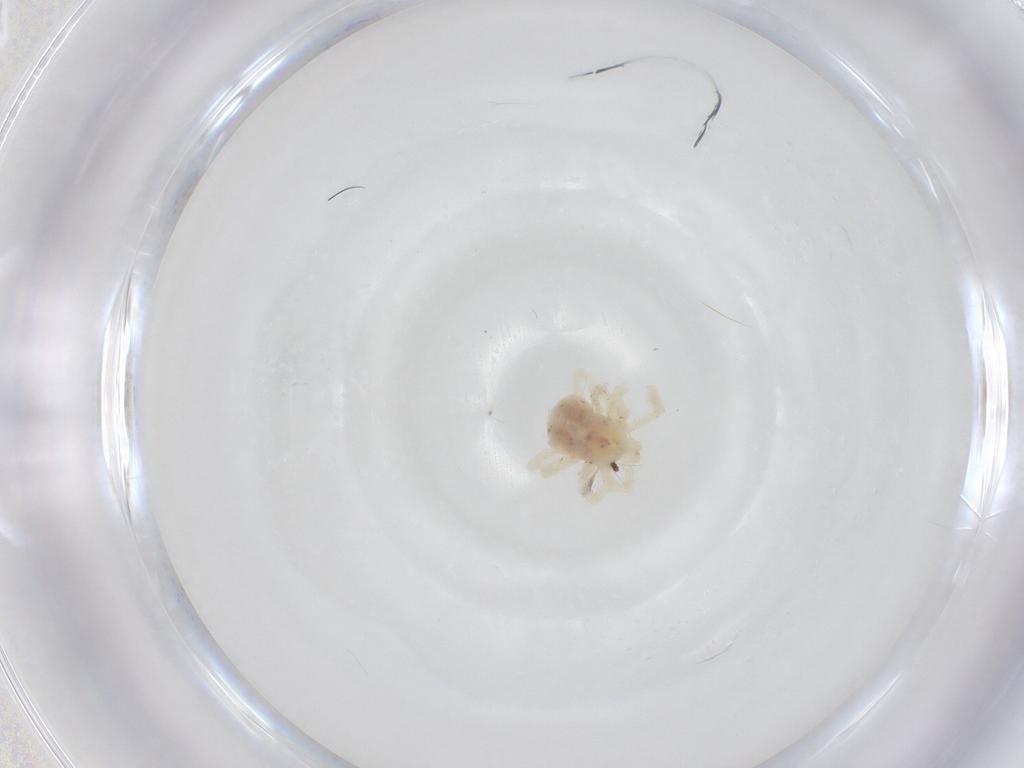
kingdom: Animalia
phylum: Arthropoda
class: Arachnida
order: Trombidiformes
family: Anystidae
